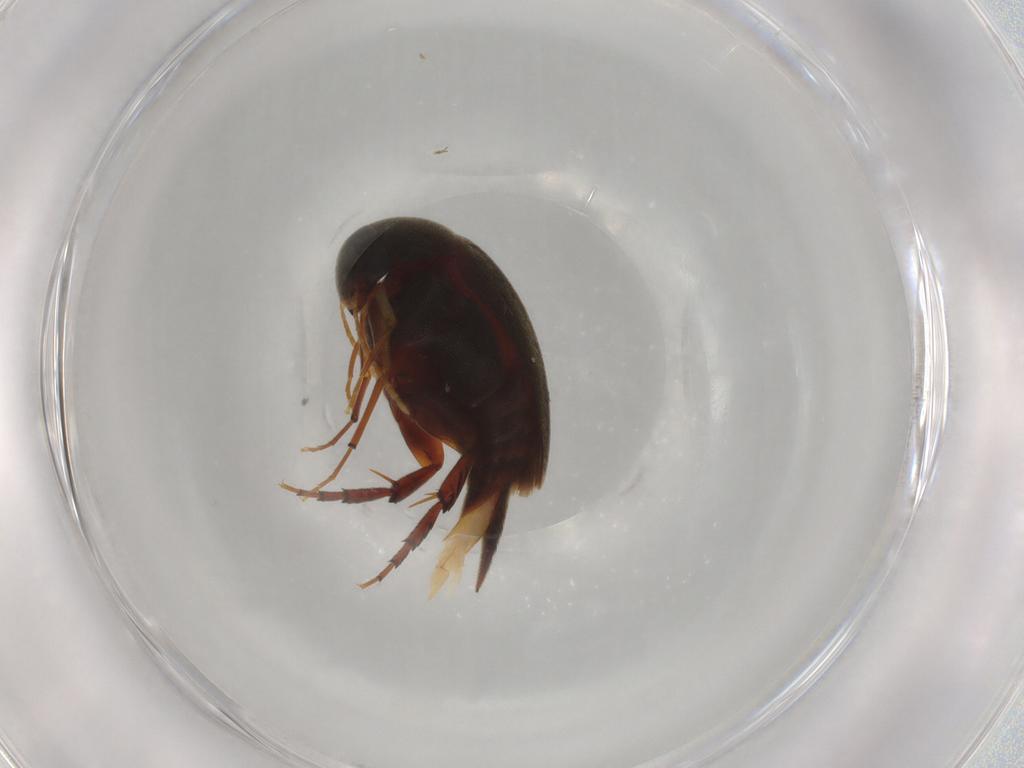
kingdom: Animalia
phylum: Arthropoda
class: Insecta
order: Coleoptera
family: Mordellidae
